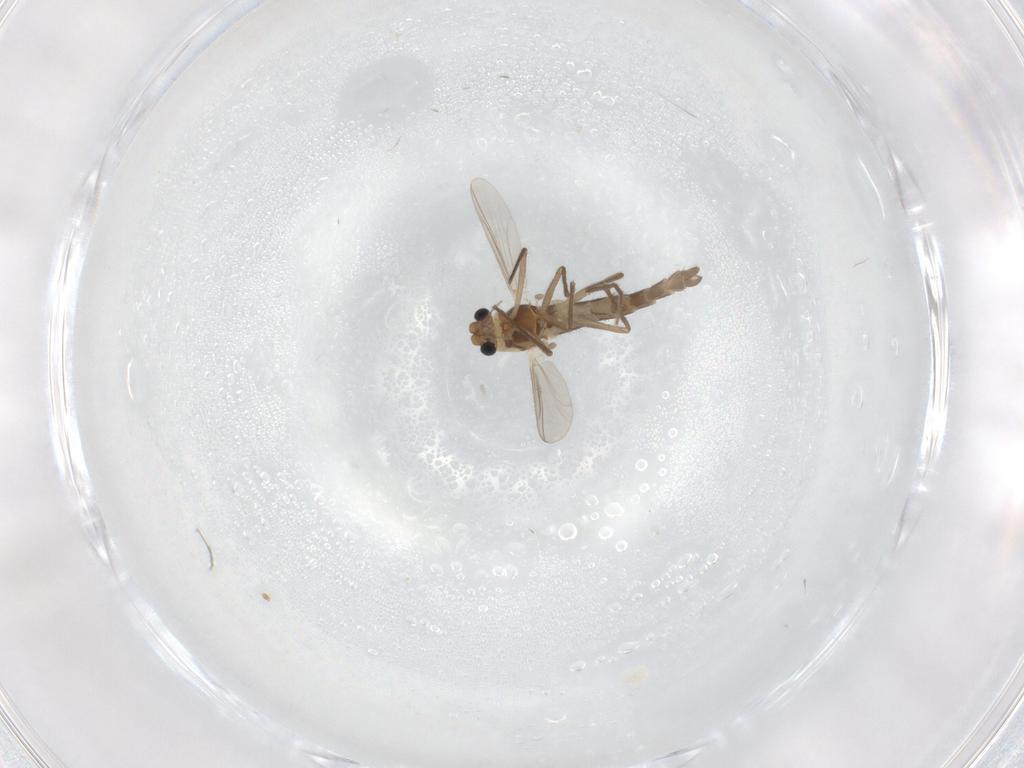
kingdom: Animalia
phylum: Arthropoda
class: Insecta
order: Diptera
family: Chironomidae
